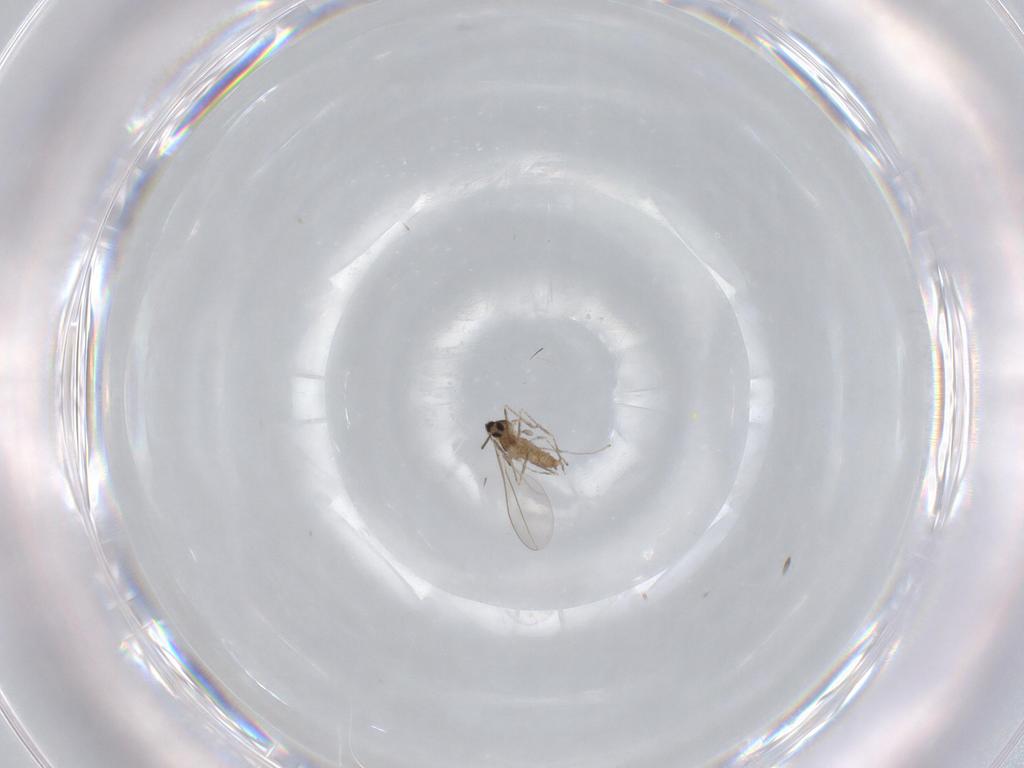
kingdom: Animalia
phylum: Arthropoda
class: Insecta
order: Diptera
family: Cecidomyiidae
